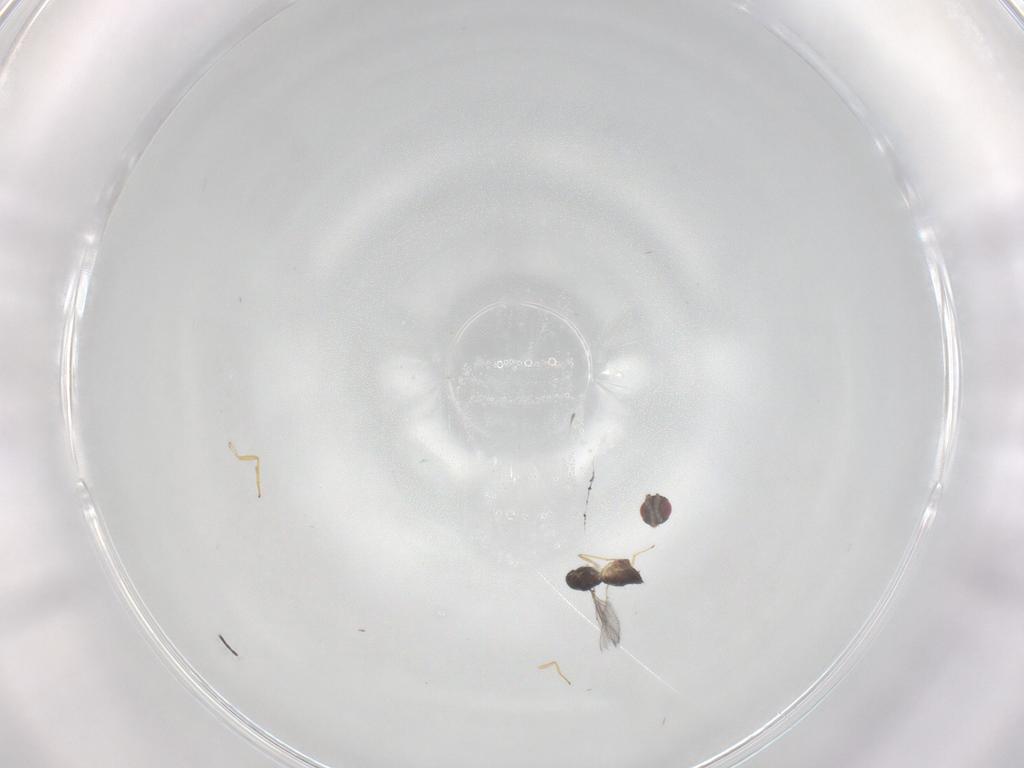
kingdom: Animalia
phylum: Arthropoda
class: Insecta
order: Hymenoptera
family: Eulophidae
